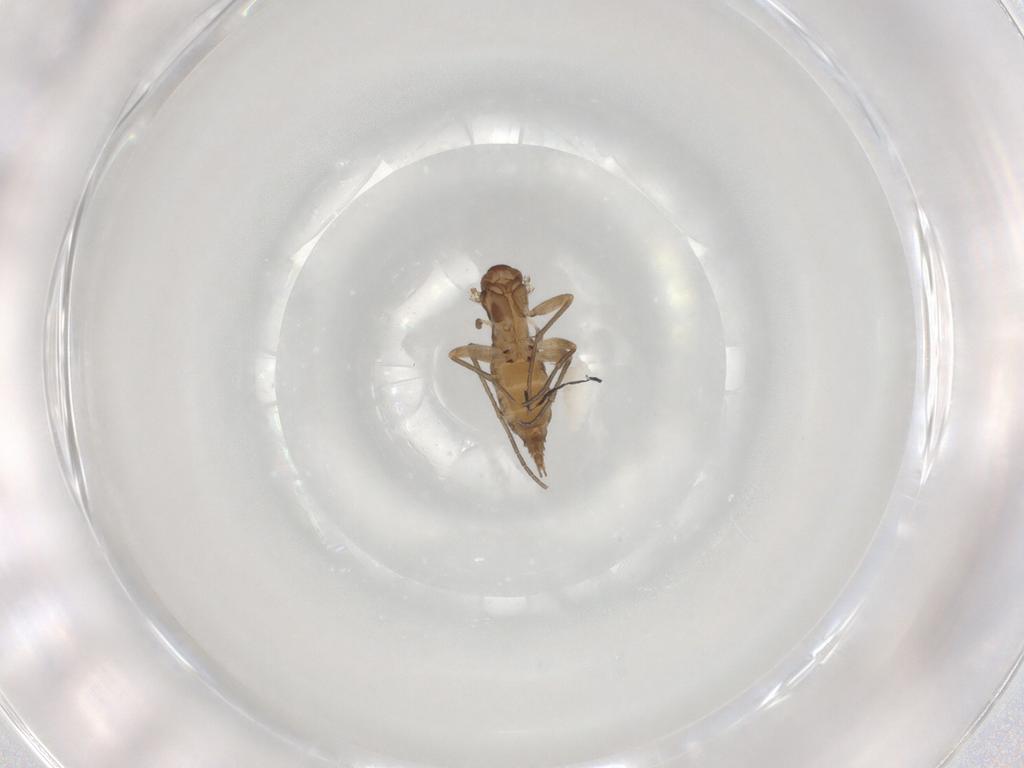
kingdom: Animalia
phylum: Arthropoda
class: Insecta
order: Diptera
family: Sciaridae
